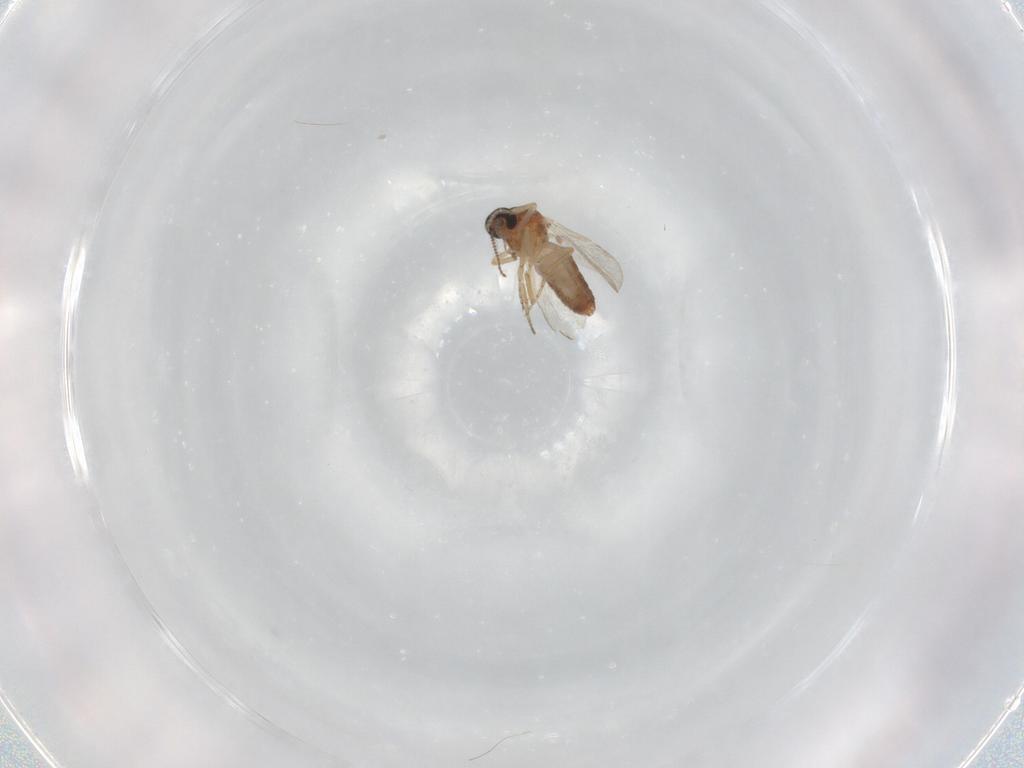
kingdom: Animalia
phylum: Arthropoda
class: Insecta
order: Diptera
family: Ceratopogonidae
